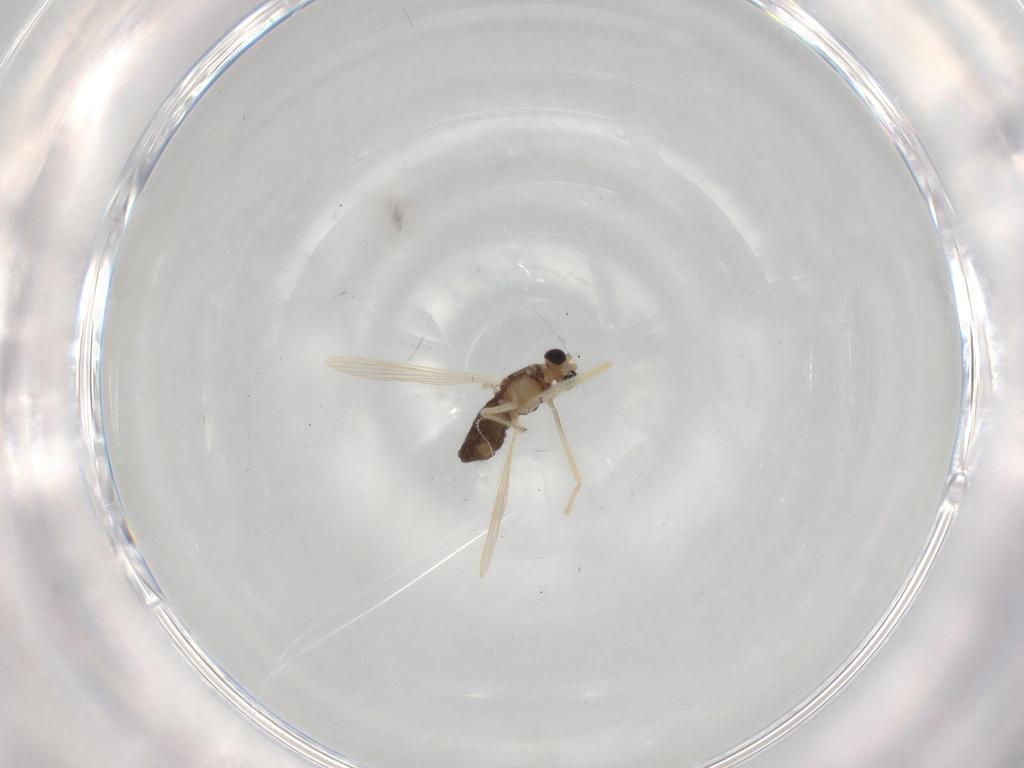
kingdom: Animalia
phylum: Arthropoda
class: Insecta
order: Diptera
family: Chironomidae
